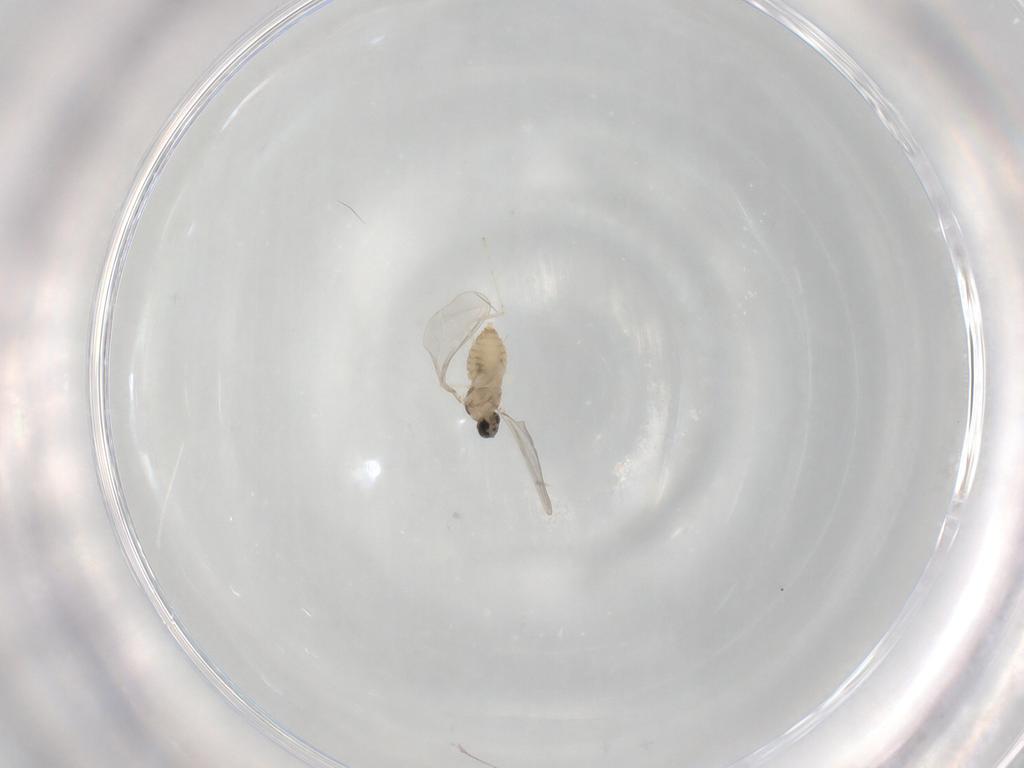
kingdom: Animalia
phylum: Arthropoda
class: Insecta
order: Diptera
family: Cecidomyiidae
